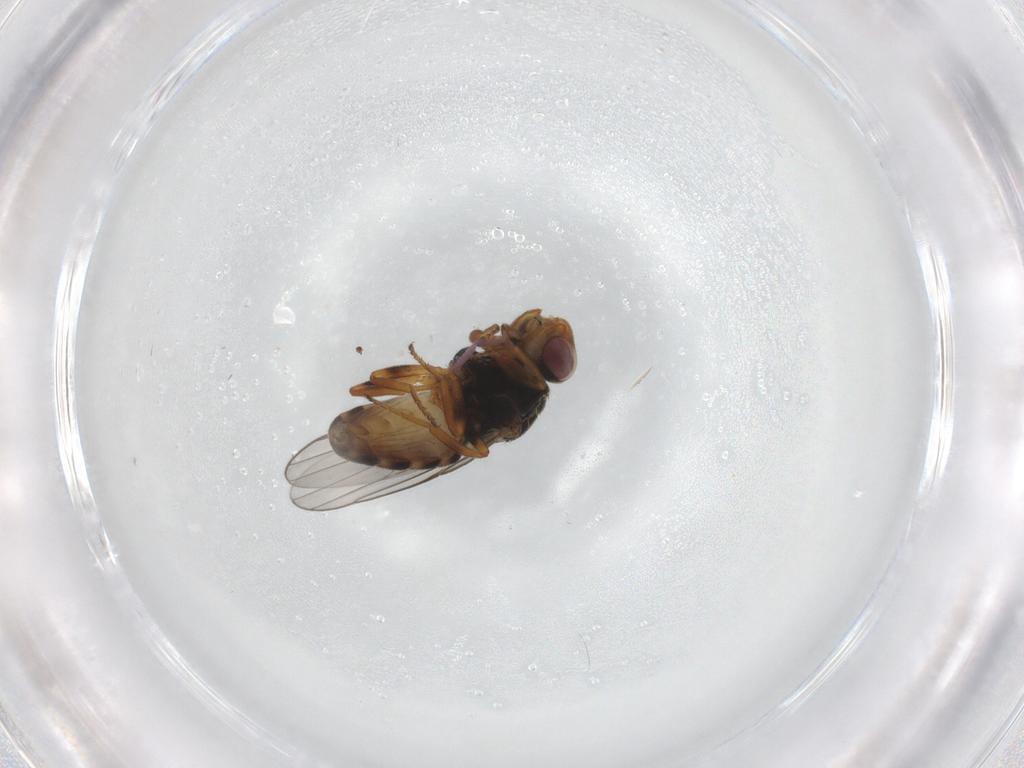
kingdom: Animalia
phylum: Arthropoda
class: Insecta
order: Diptera
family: Chloropidae
